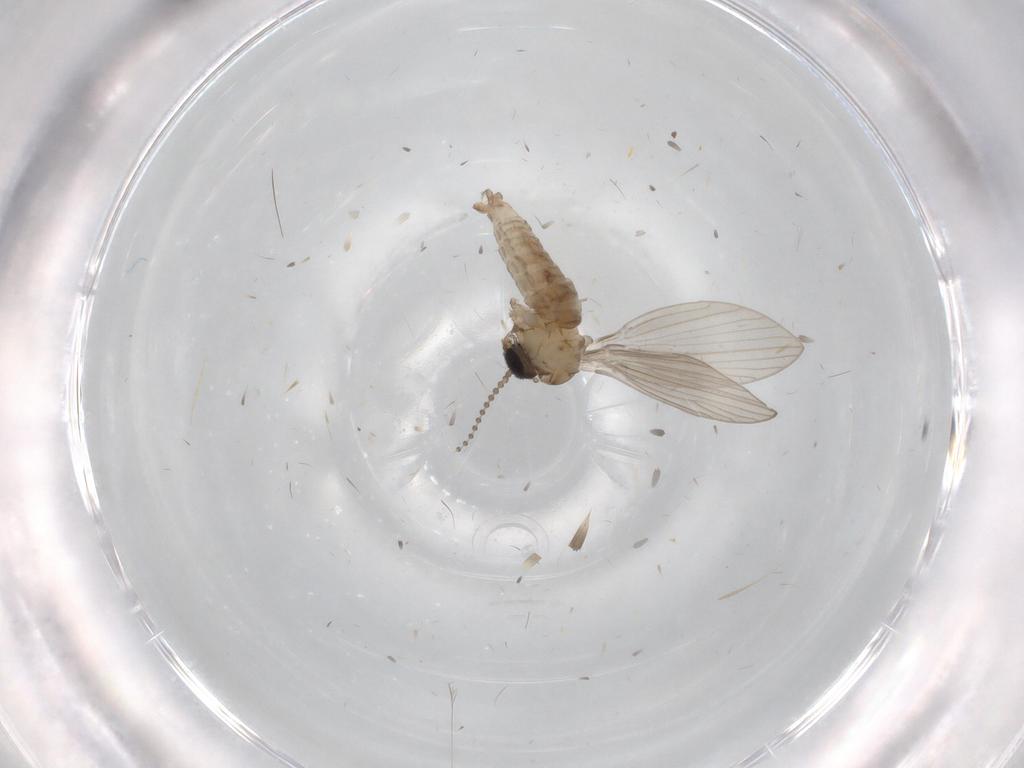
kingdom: Animalia
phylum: Arthropoda
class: Insecta
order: Diptera
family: Psychodidae
